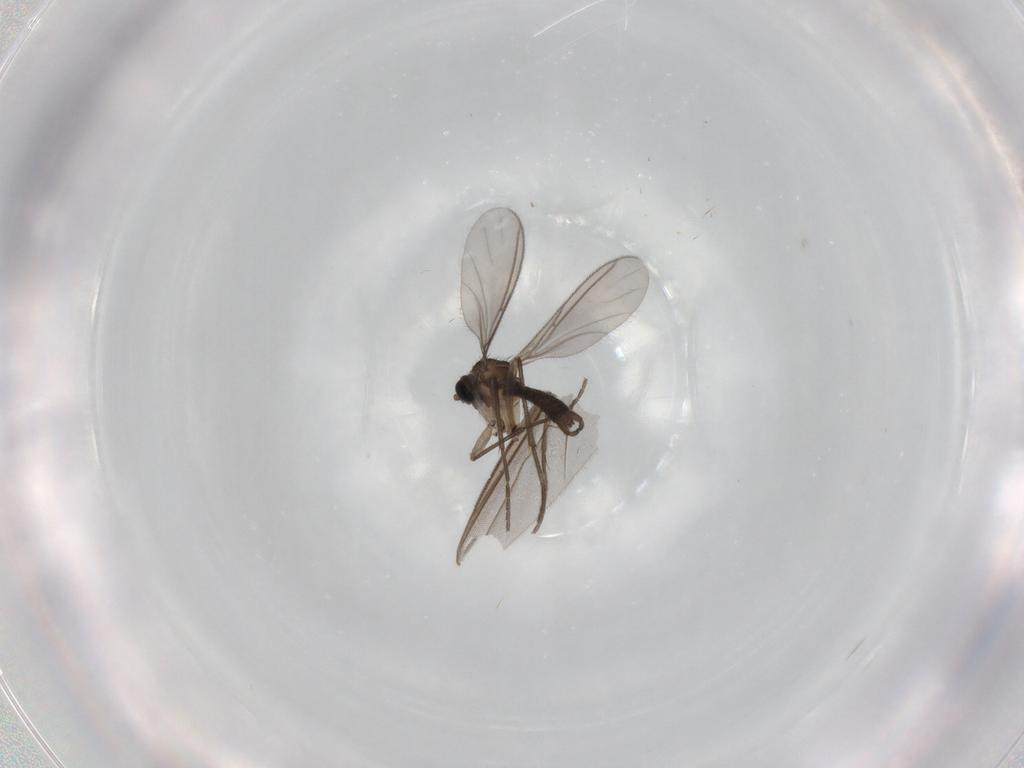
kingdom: Animalia
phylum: Arthropoda
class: Insecta
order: Diptera
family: Sciaridae
